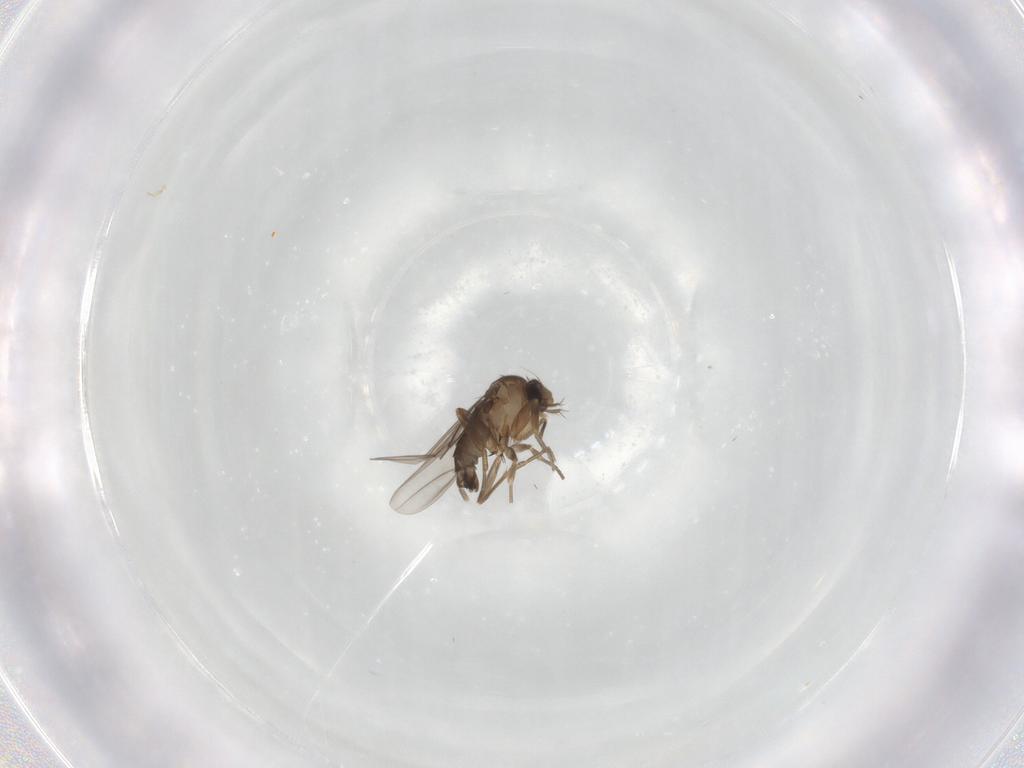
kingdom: Animalia
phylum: Arthropoda
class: Insecta
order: Diptera
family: Phoridae
